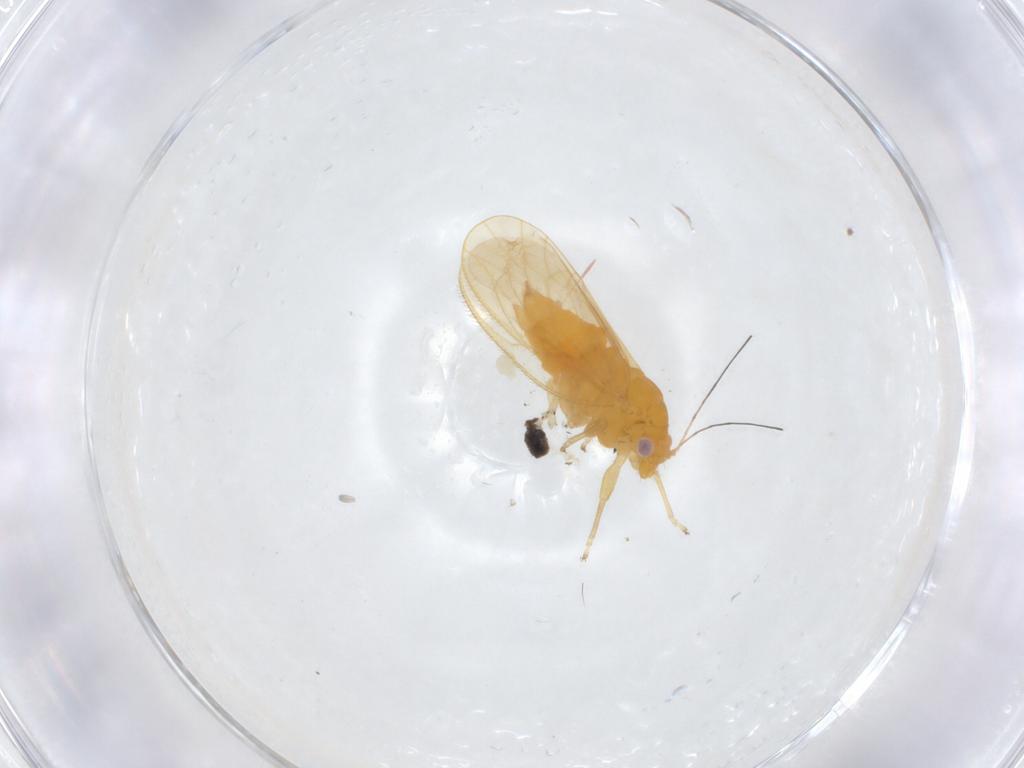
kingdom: Animalia
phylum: Arthropoda
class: Insecta
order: Hemiptera
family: Psyllidae
